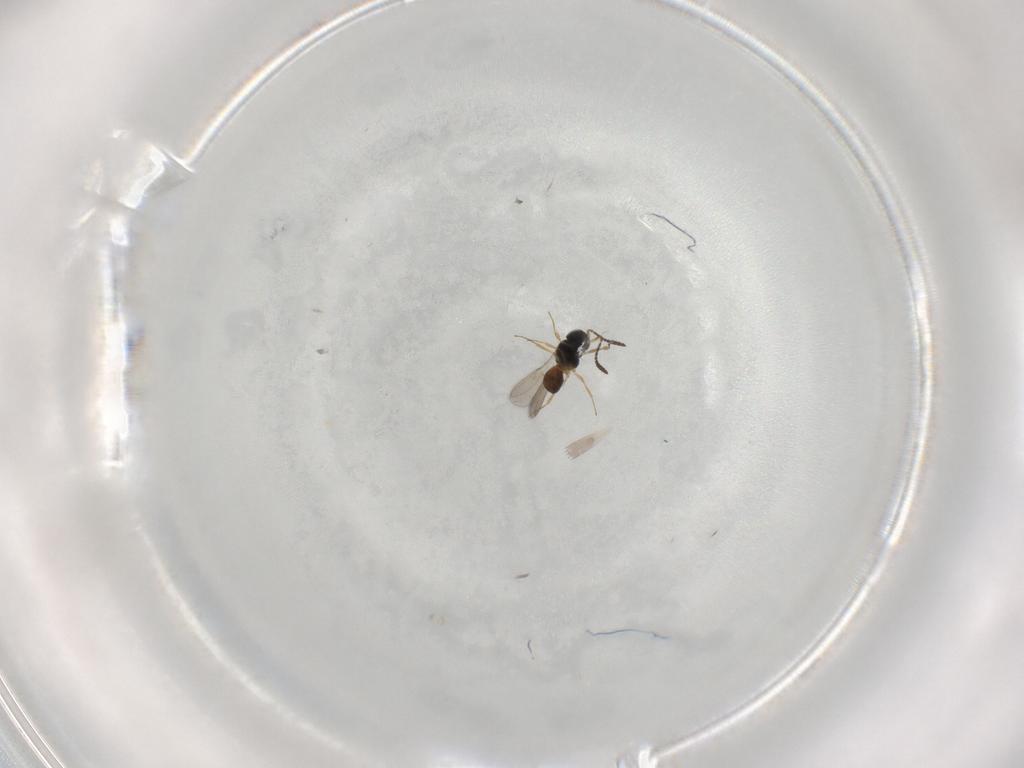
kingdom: Animalia
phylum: Arthropoda
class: Insecta
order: Hymenoptera
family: Scelionidae
